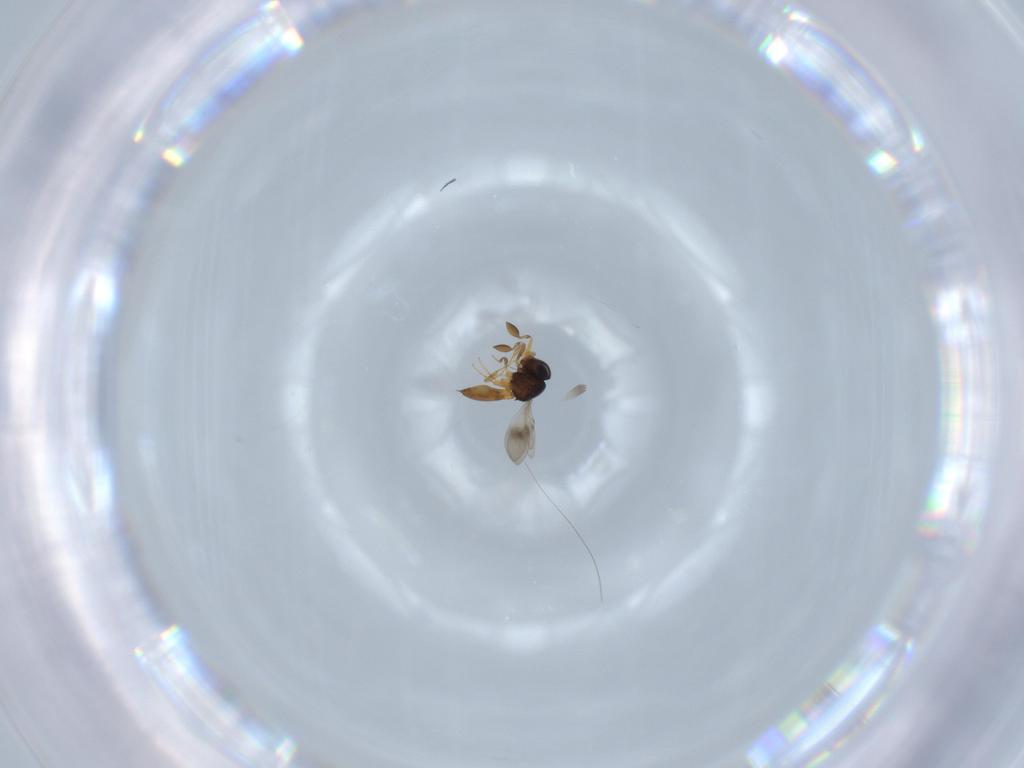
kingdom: Animalia
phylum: Arthropoda
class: Insecta
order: Hymenoptera
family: Scelionidae
